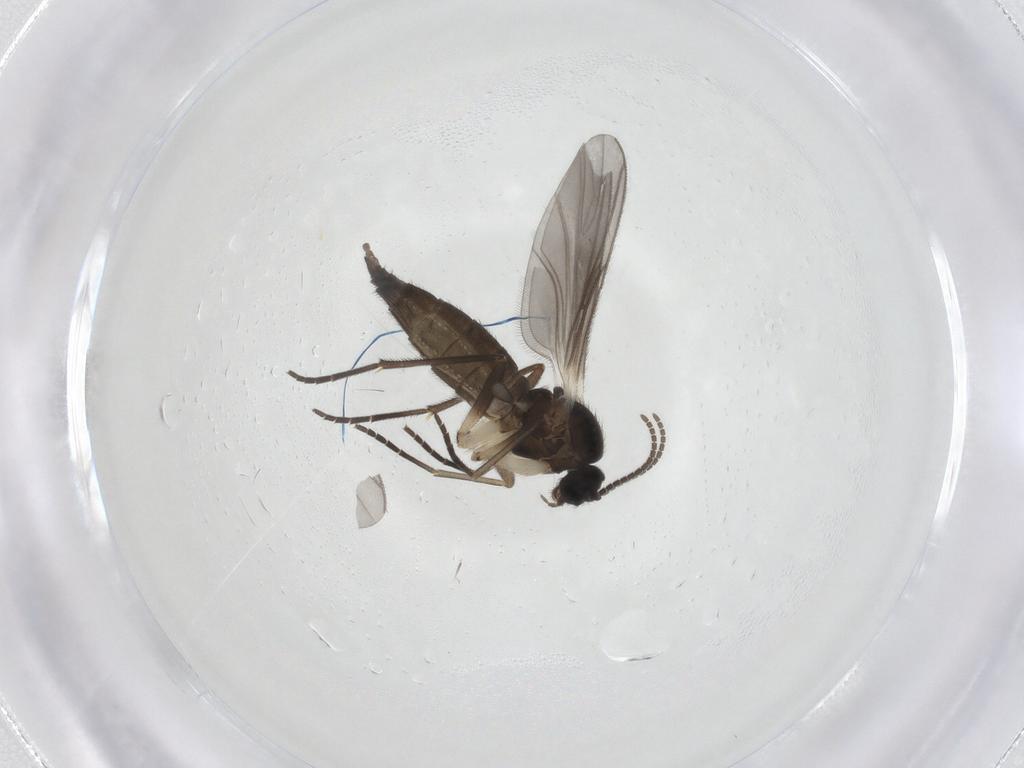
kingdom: Animalia
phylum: Arthropoda
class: Insecta
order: Diptera
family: Sciaridae
